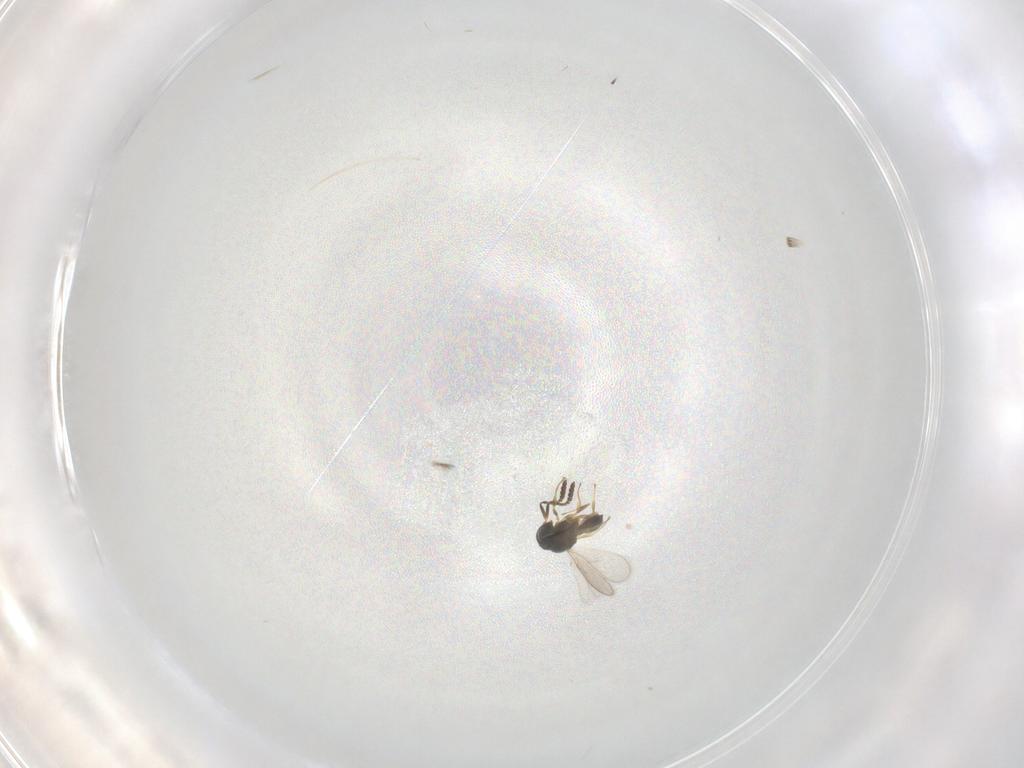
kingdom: Animalia
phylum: Arthropoda
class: Insecta
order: Hymenoptera
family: Scelionidae
